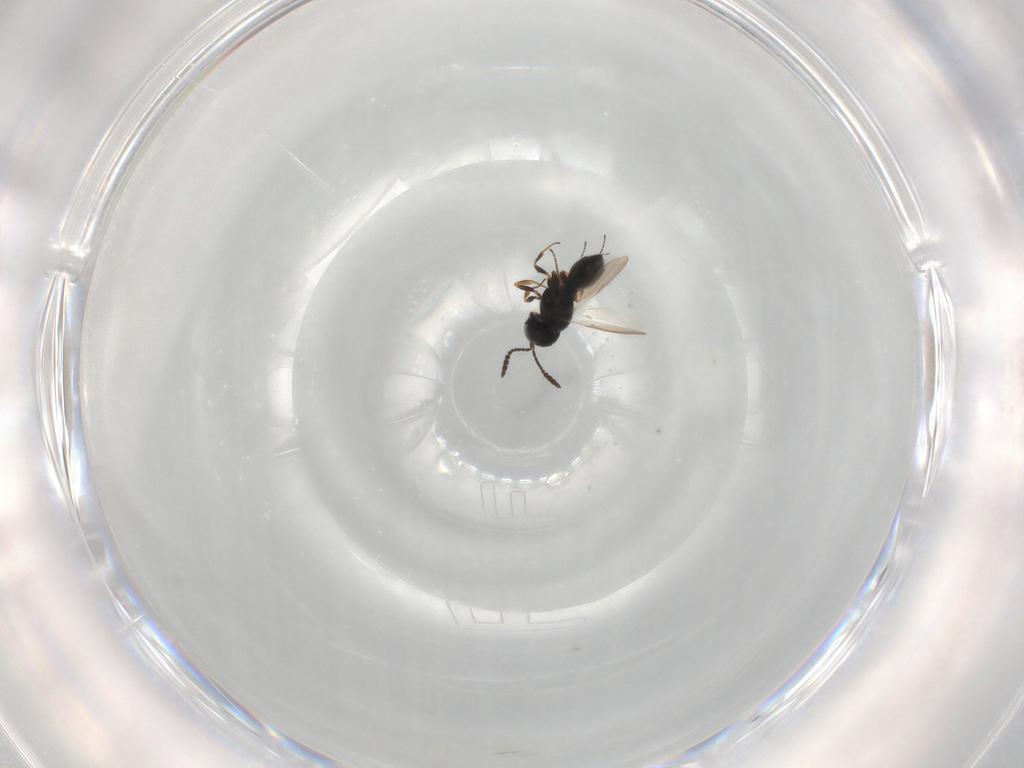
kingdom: Animalia
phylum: Arthropoda
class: Insecta
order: Hymenoptera
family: Scelionidae
